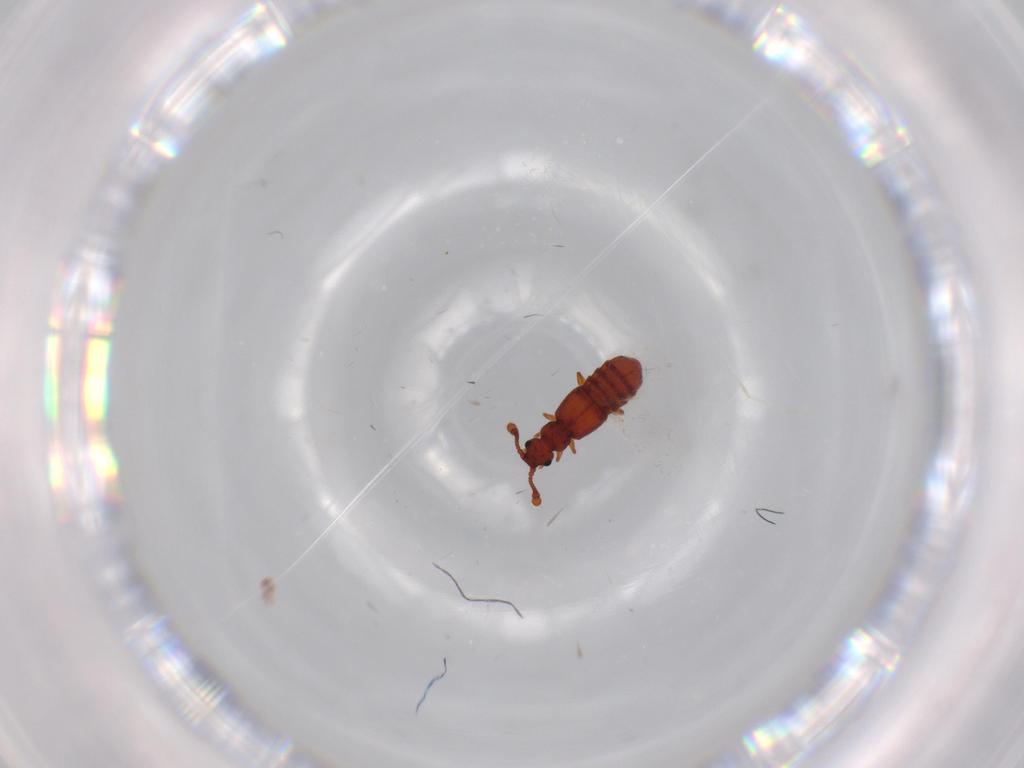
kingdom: Animalia
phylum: Arthropoda
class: Insecta
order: Coleoptera
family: Staphylinidae
